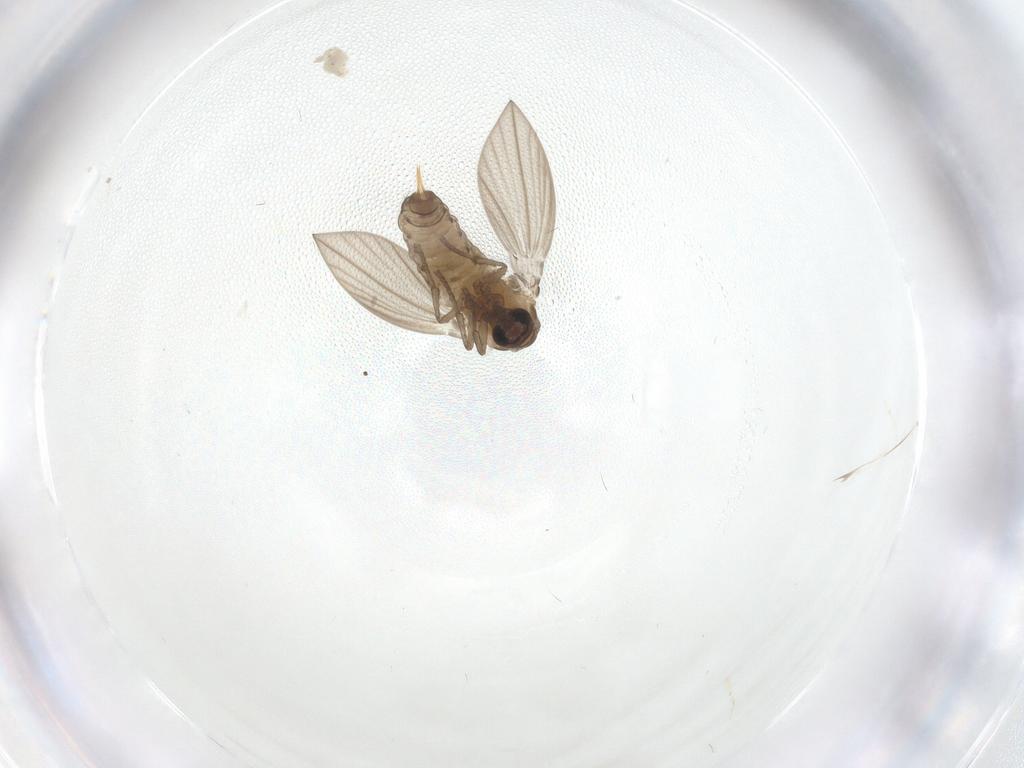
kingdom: Animalia
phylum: Arthropoda
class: Insecta
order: Diptera
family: Psychodidae
